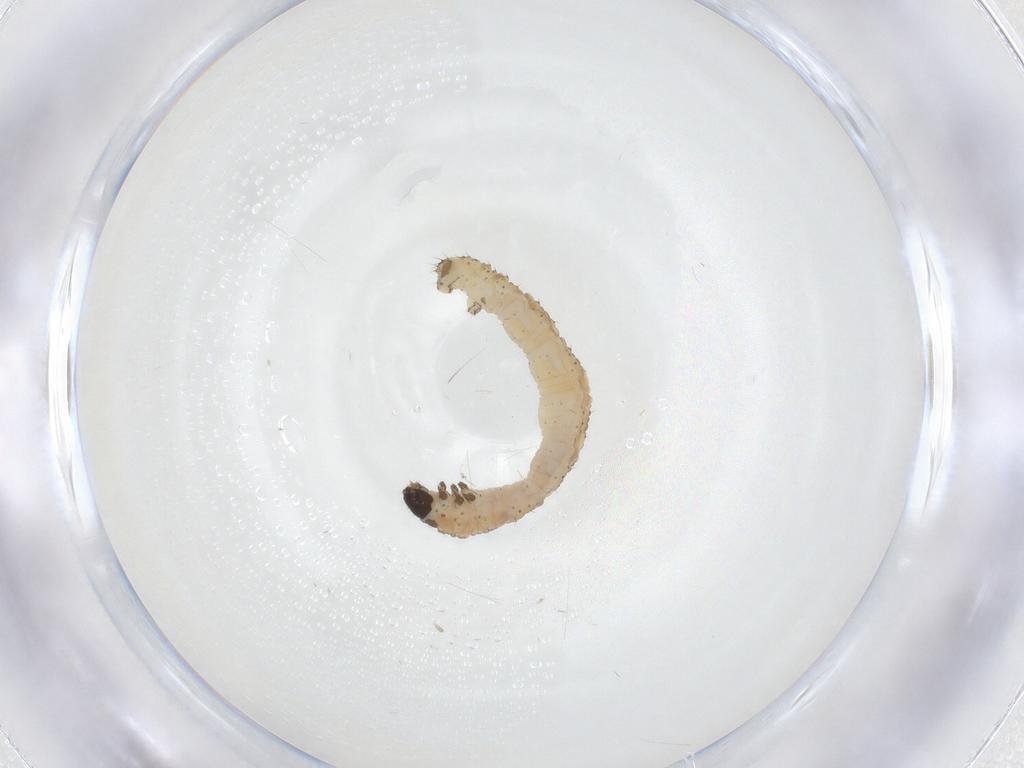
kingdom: Animalia
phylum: Arthropoda
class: Insecta
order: Lepidoptera
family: Geometridae
